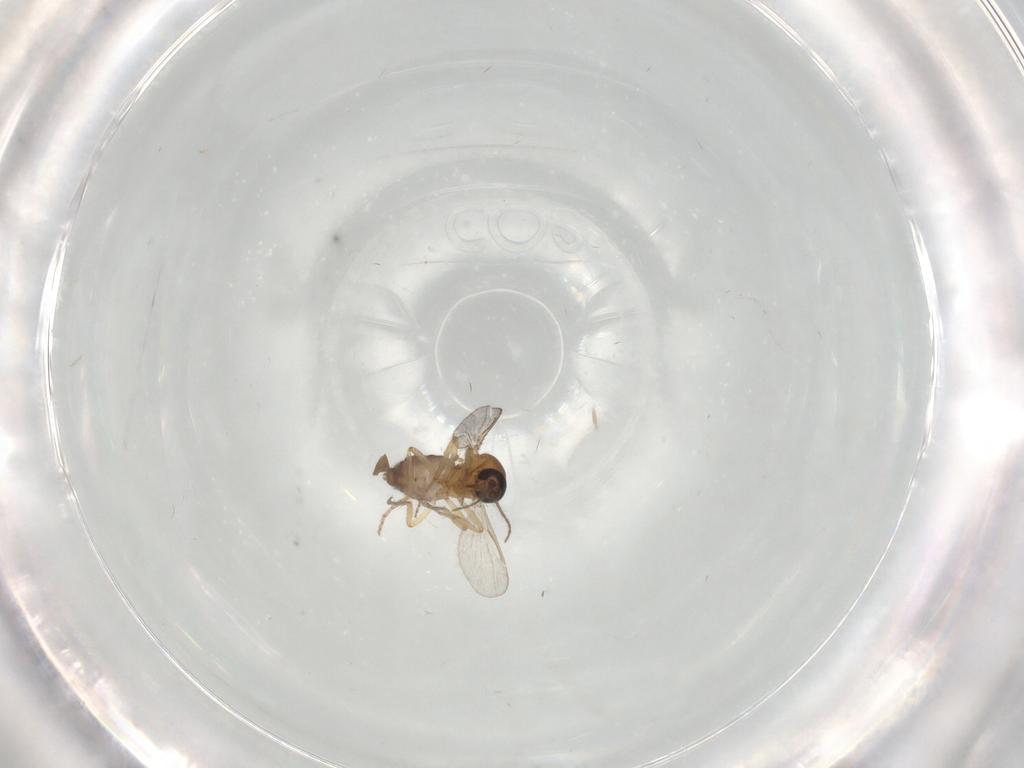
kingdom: Animalia
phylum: Arthropoda
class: Insecta
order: Diptera
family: Ceratopogonidae
